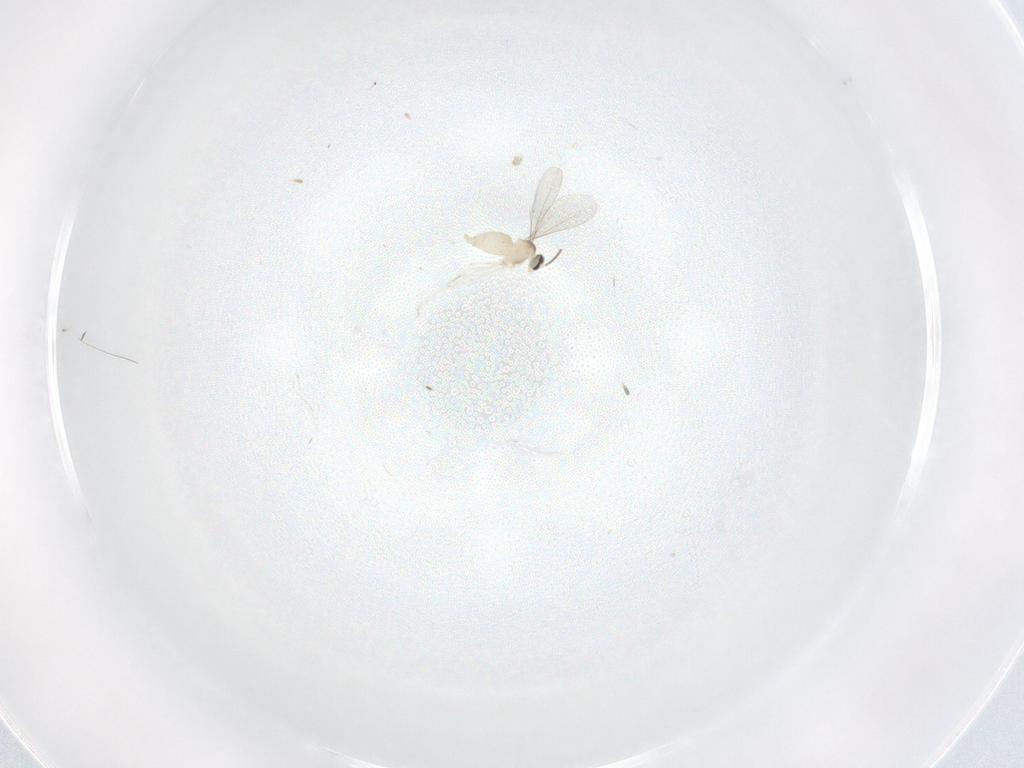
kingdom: Animalia
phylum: Arthropoda
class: Insecta
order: Diptera
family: Cecidomyiidae
